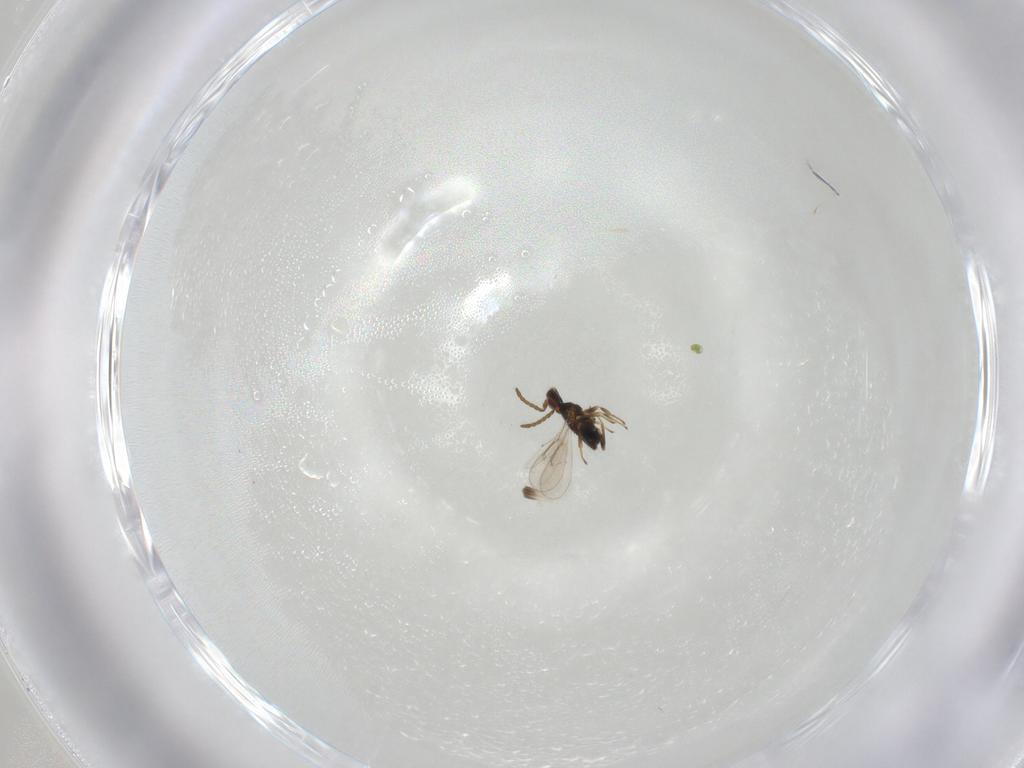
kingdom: Animalia
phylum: Arthropoda
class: Insecta
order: Hymenoptera
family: Aphelinidae
